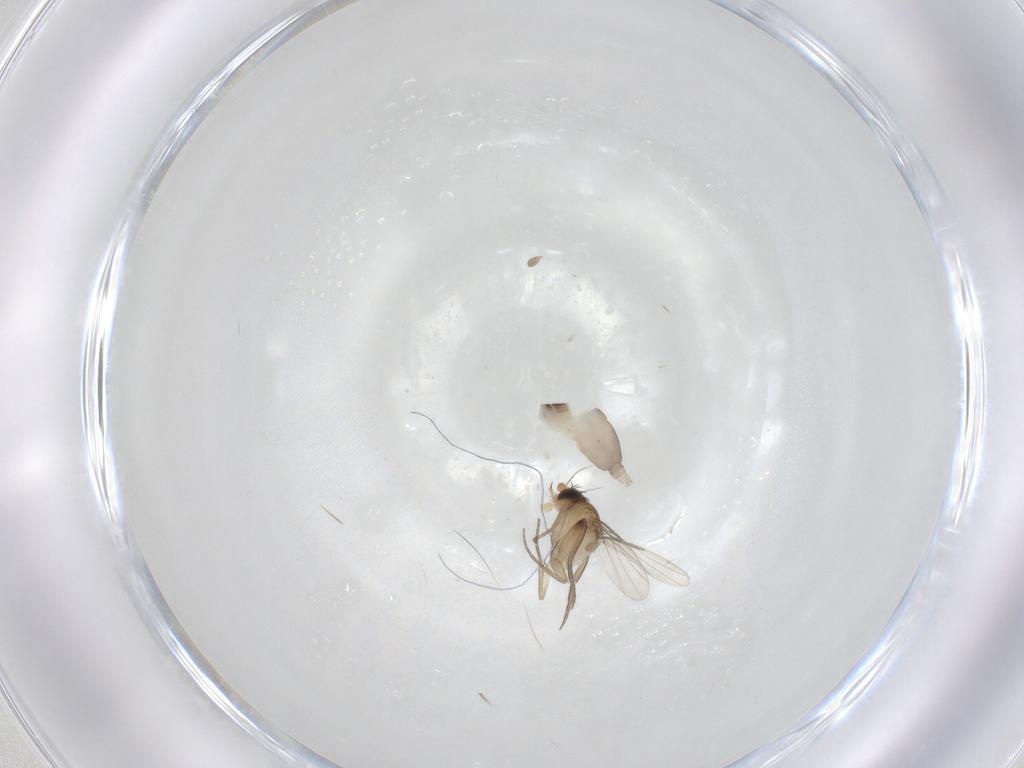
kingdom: Animalia
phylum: Arthropoda
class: Insecta
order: Diptera
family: Phoridae
